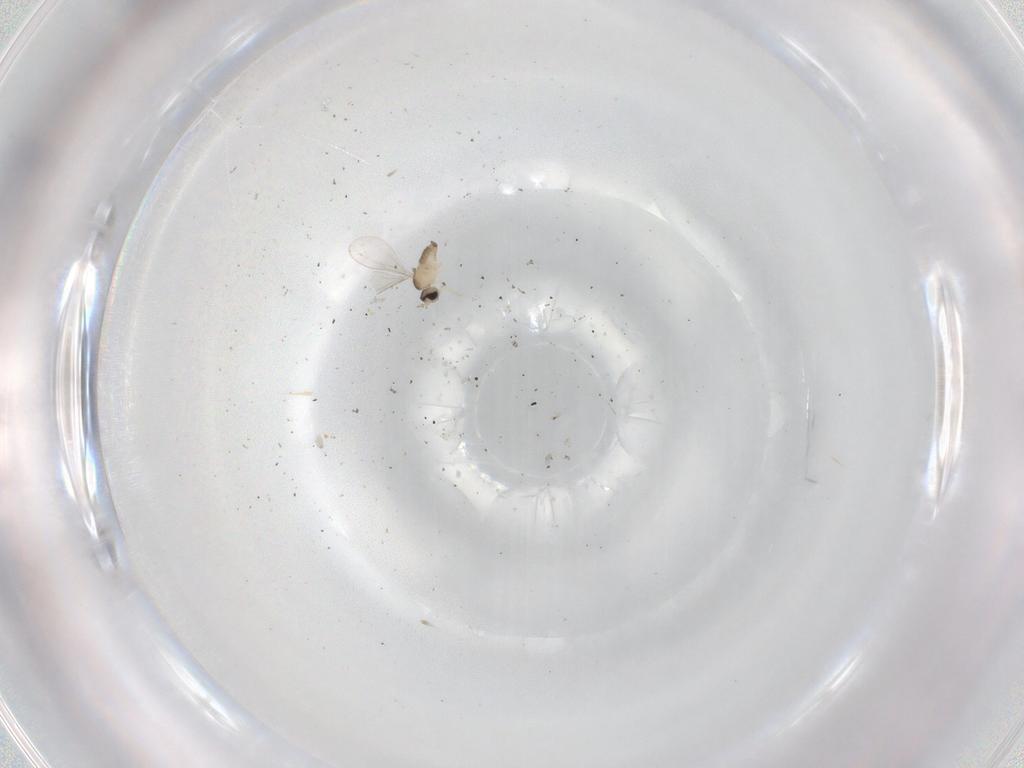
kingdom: Animalia
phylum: Arthropoda
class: Insecta
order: Diptera
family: Cecidomyiidae
